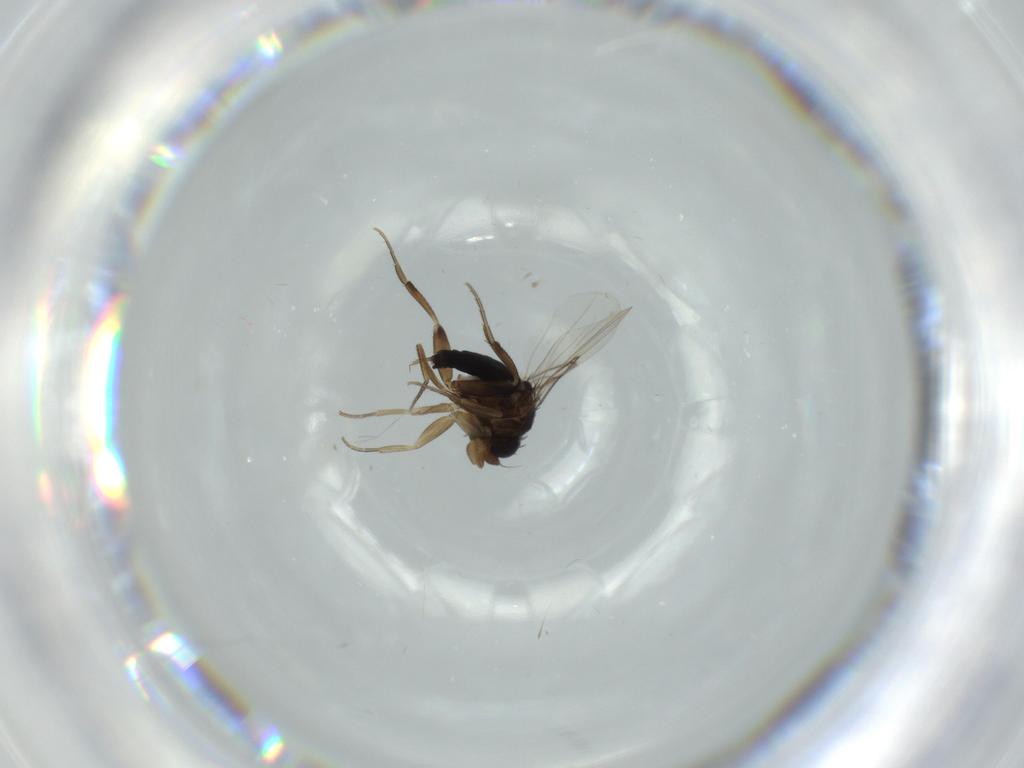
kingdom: Animalia
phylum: Arthropoda
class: Insecta
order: Diptera
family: Phoridae
